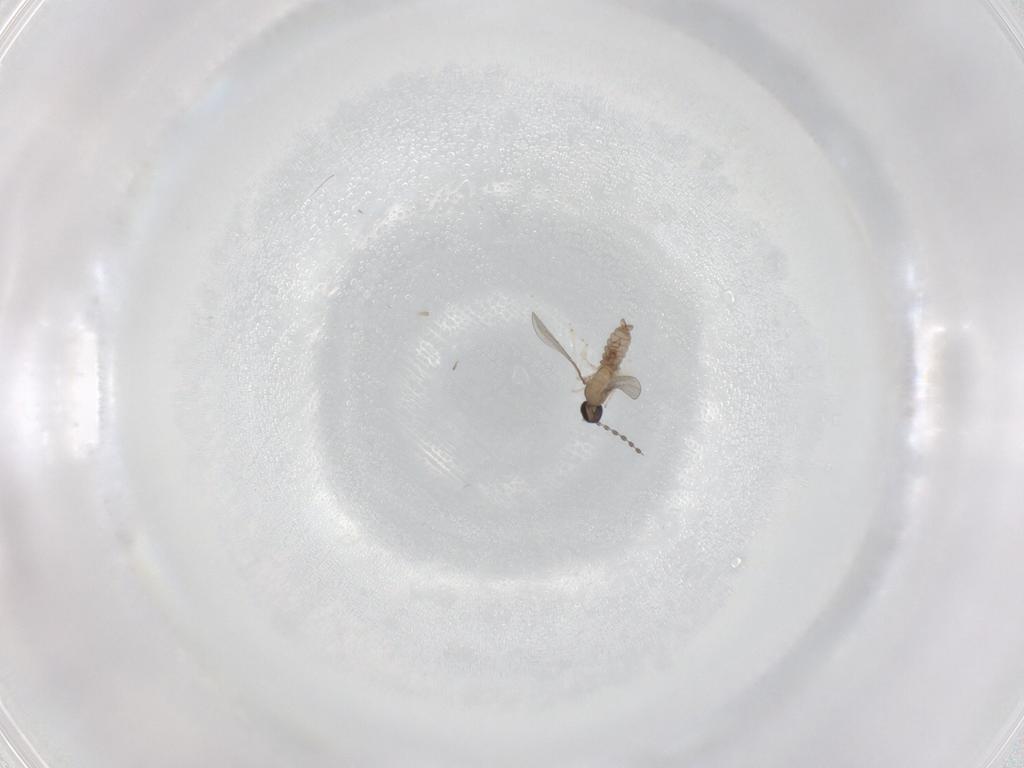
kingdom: Animalia
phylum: Arthropoda
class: Insecta
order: Diptera
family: Cecidomyiidae
